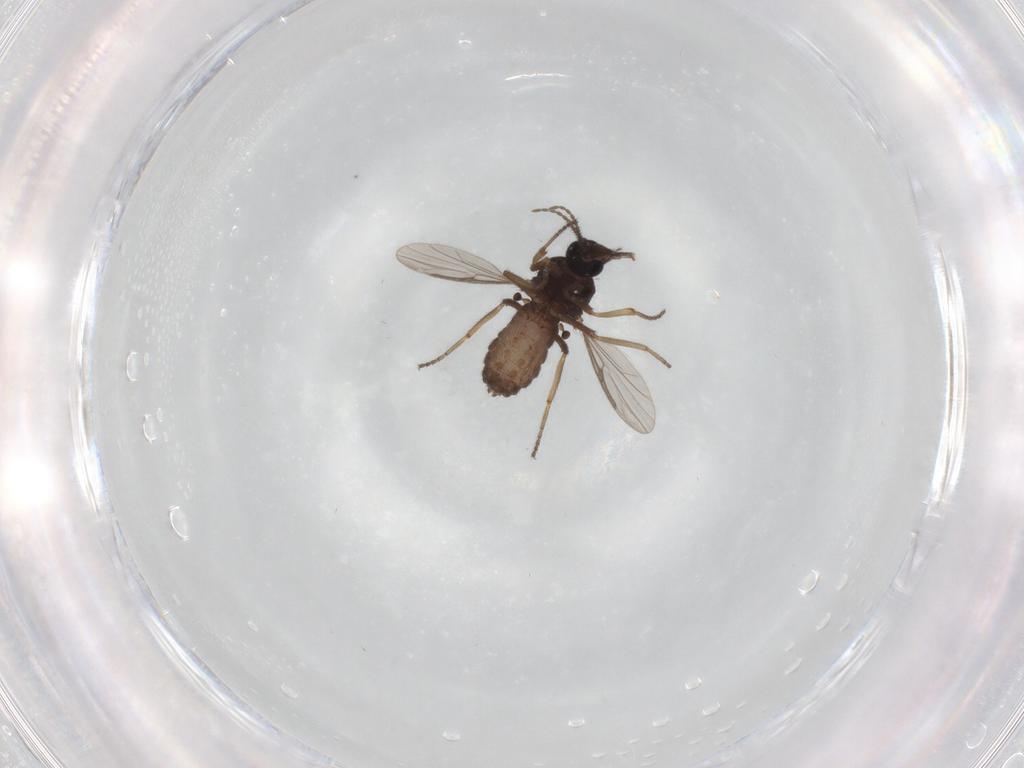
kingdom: Animalia
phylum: Arthropoda
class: Insecta
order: Diptera
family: Ceratopogonidae
